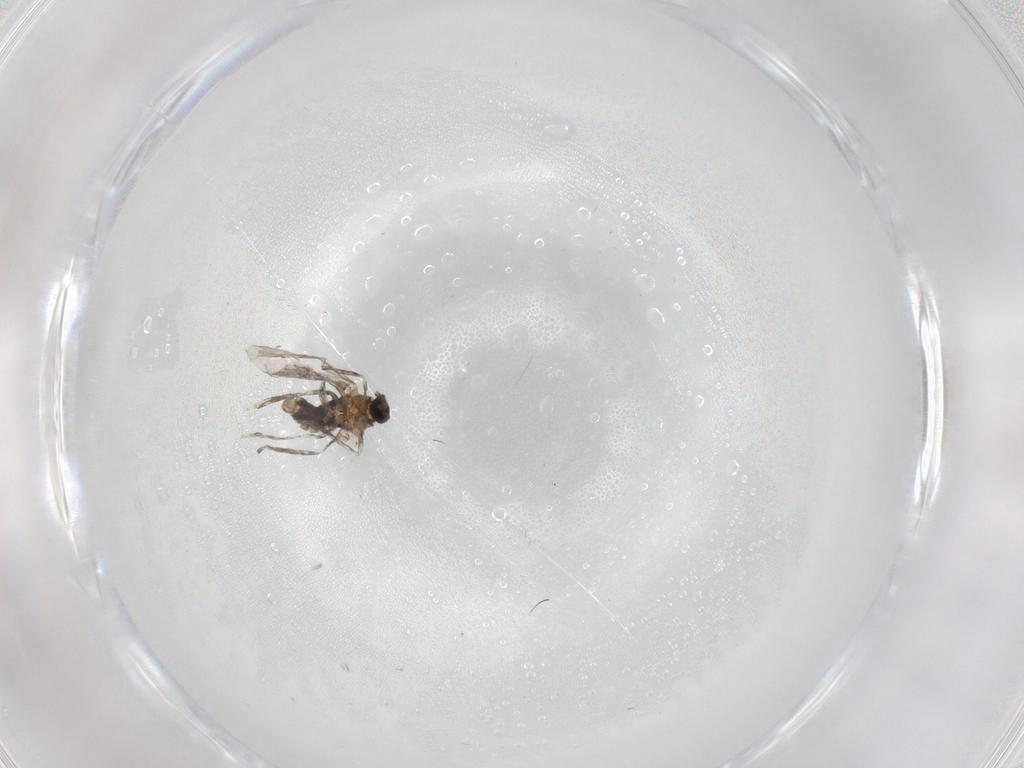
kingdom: Animalia
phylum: Arthropoda
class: Insecta
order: Diptera
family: Cecidomyiidae
